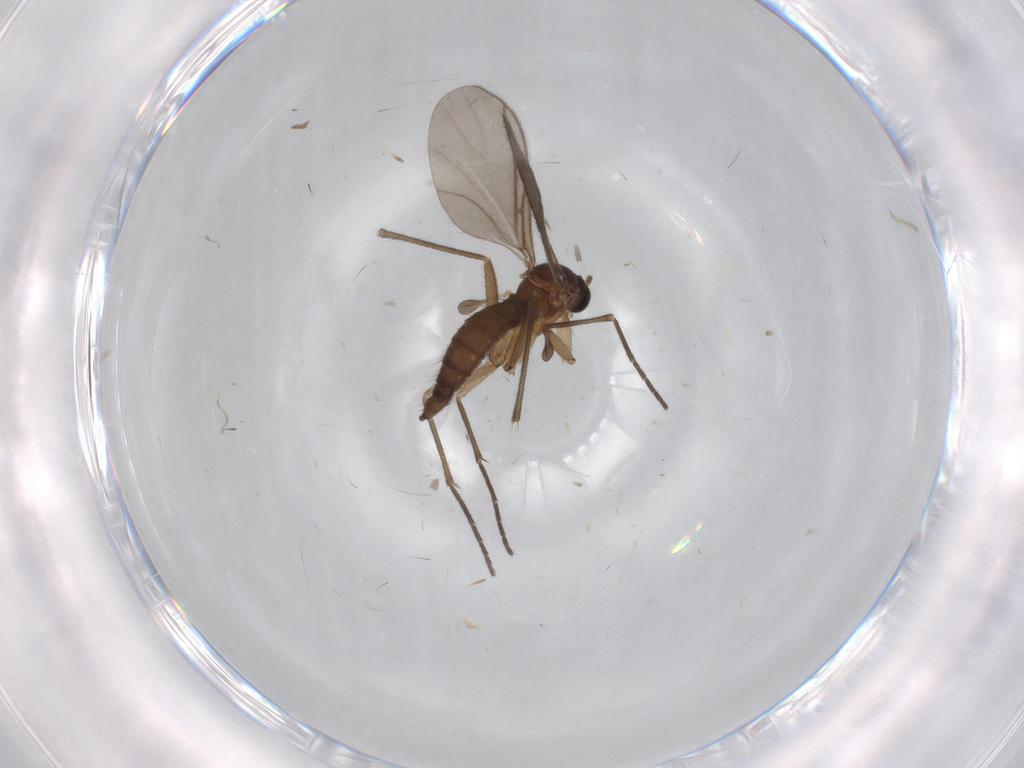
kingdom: Animalia
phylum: Arthropoda
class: Insecta
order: Diptera
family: Sciaridae
